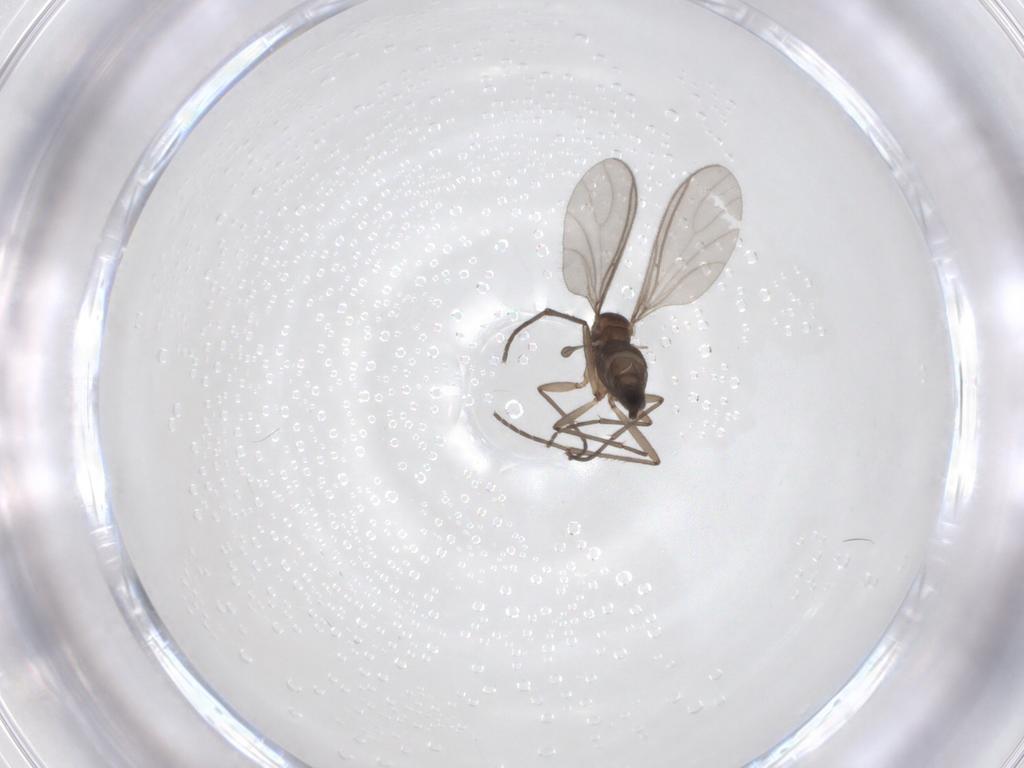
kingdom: Animalia
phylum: Arthropoda
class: Insecta
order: Diptera
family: Sciaridae
